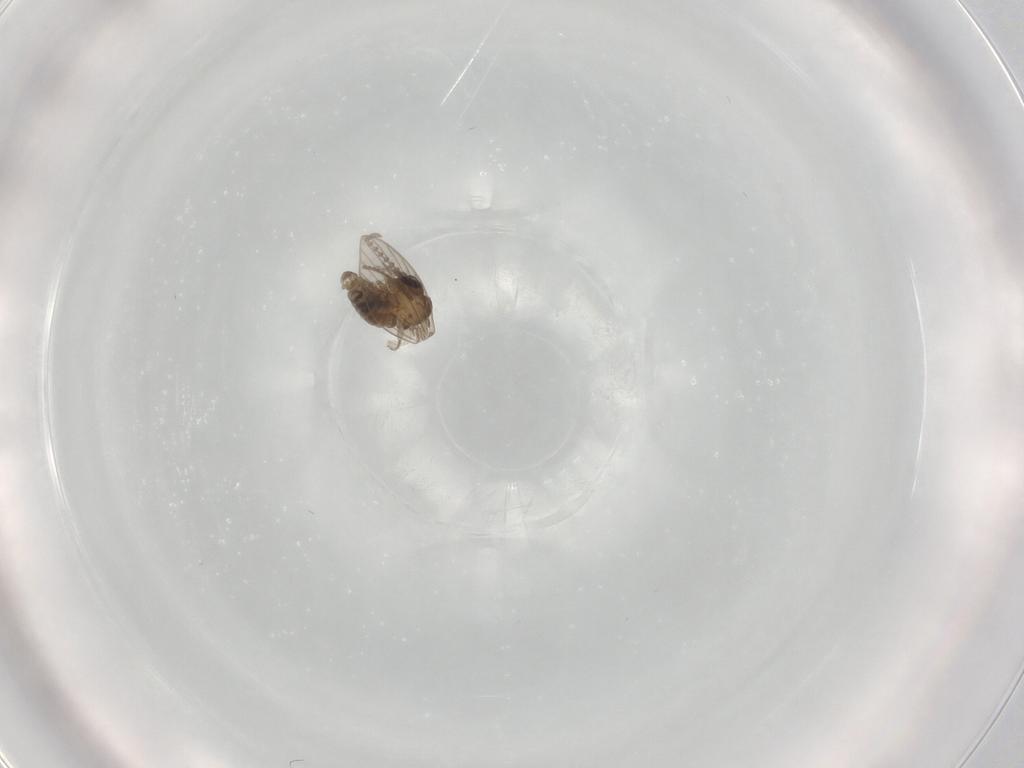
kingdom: Animalia
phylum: Arthropoda
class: Insecta
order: Diptera
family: Psychodidae
